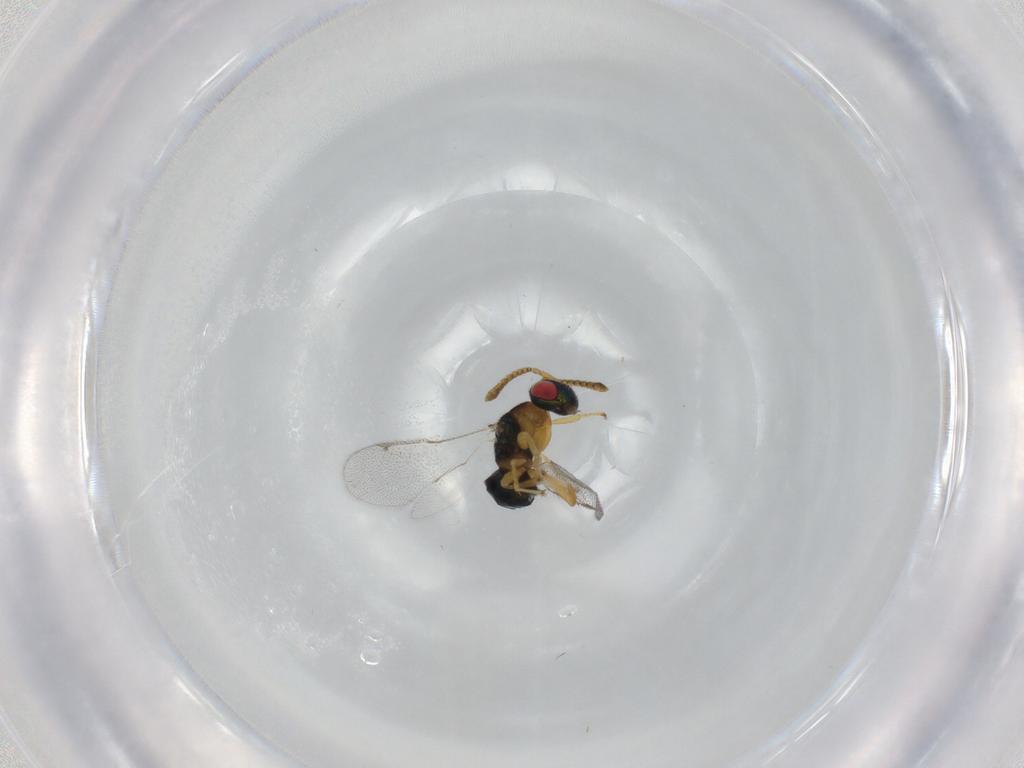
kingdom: Animalia
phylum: Arthropoda
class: Insecta
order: Hymenoptera
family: Torymidae
